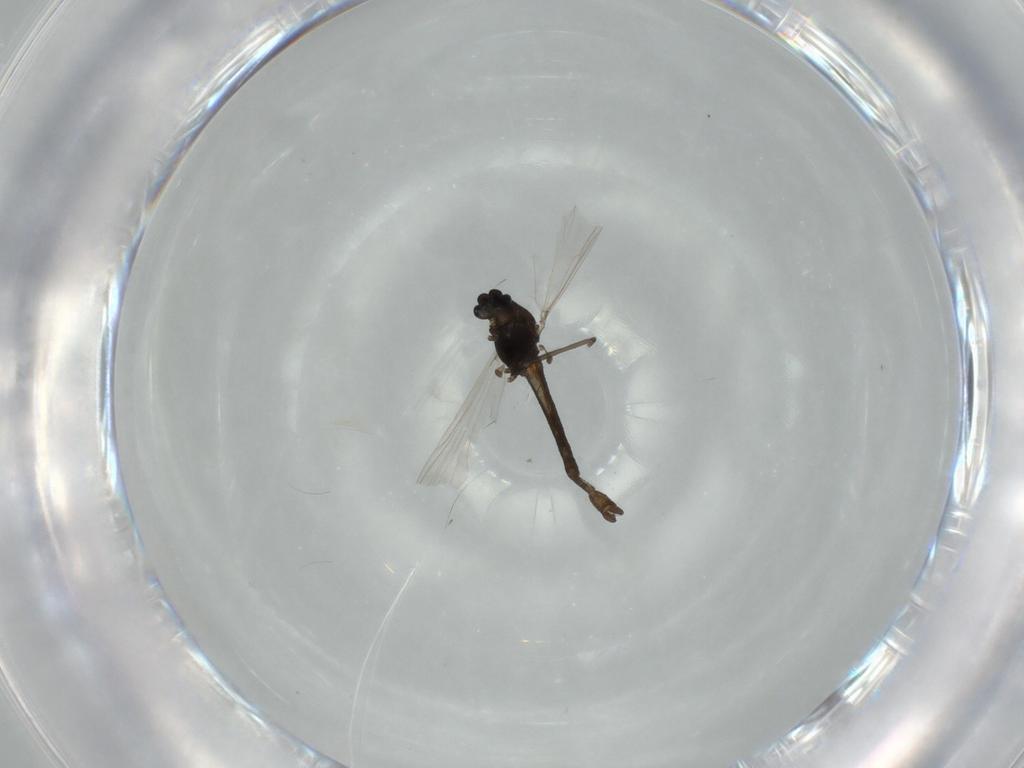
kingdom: Animalia
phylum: Arthropoda
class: Insecta
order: Diptera
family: Chironomidae
